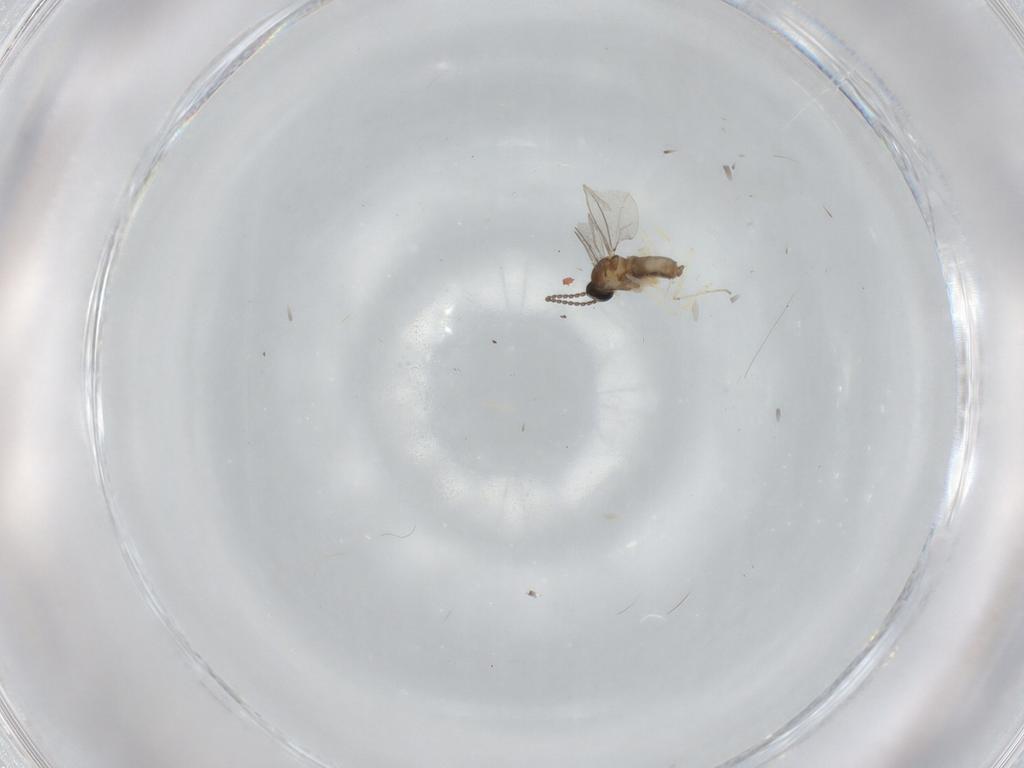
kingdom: Animalia
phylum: Arthropoda
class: Insecta
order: Diptera
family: Cecidomyiidae
